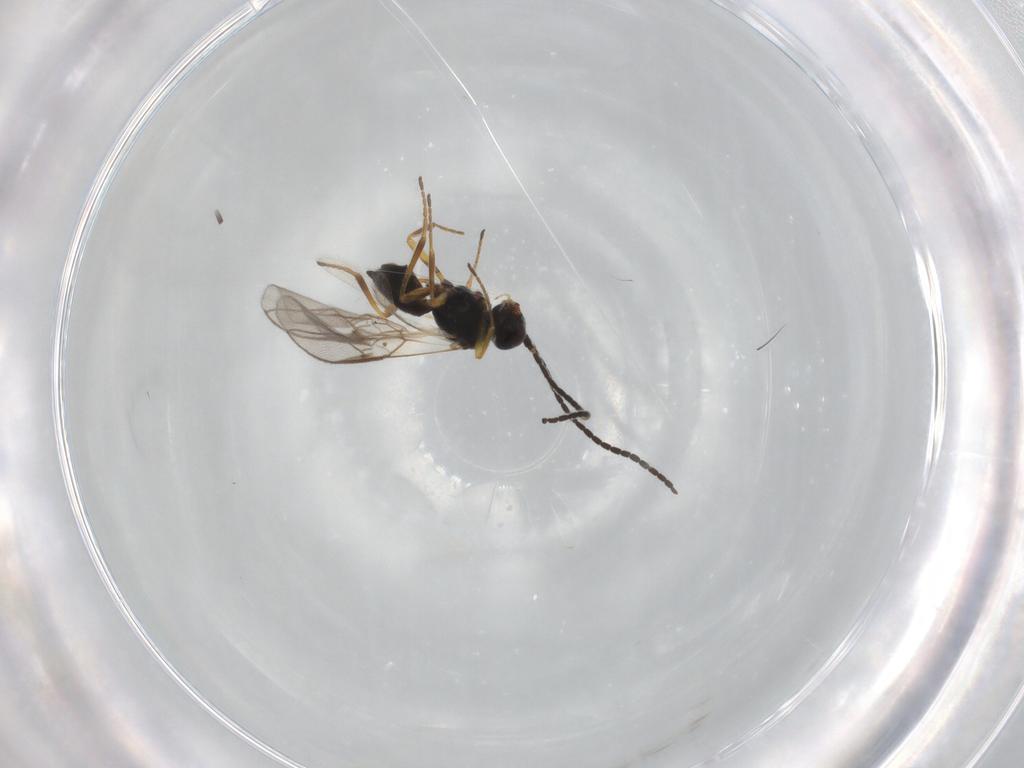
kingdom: Animalia
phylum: Arthropoda
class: Insecta
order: Hymenoptera
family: Braconidae
